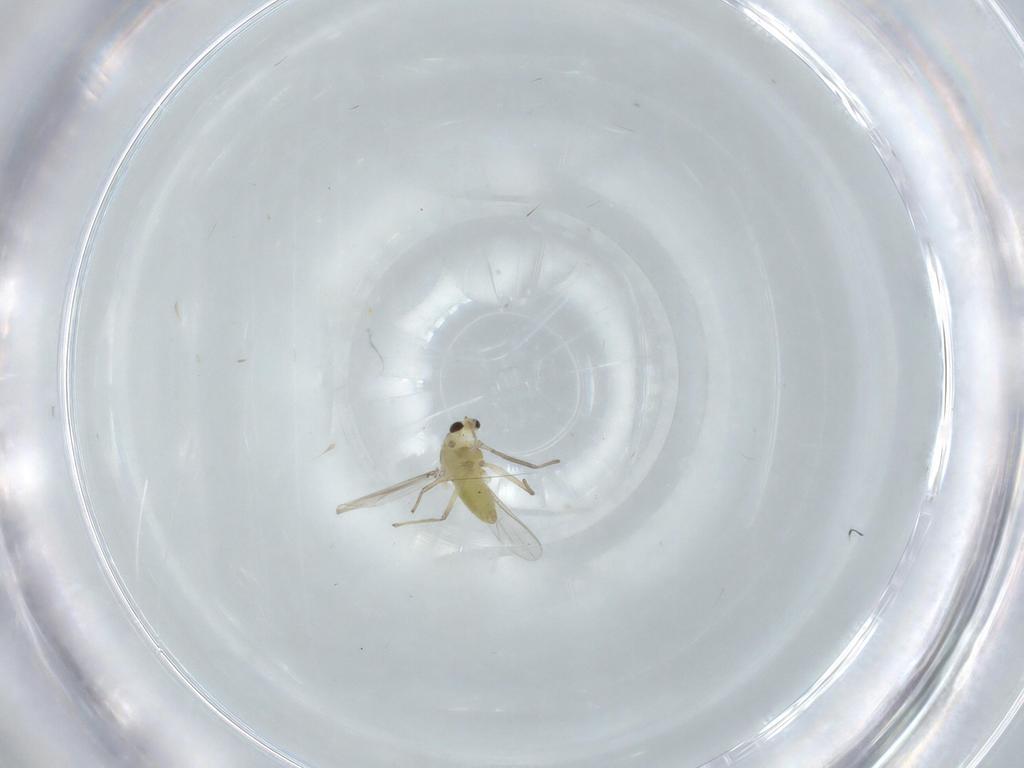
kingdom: Animalia
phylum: Arthropoda
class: Insecta
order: Diptera
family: Chironomidae
